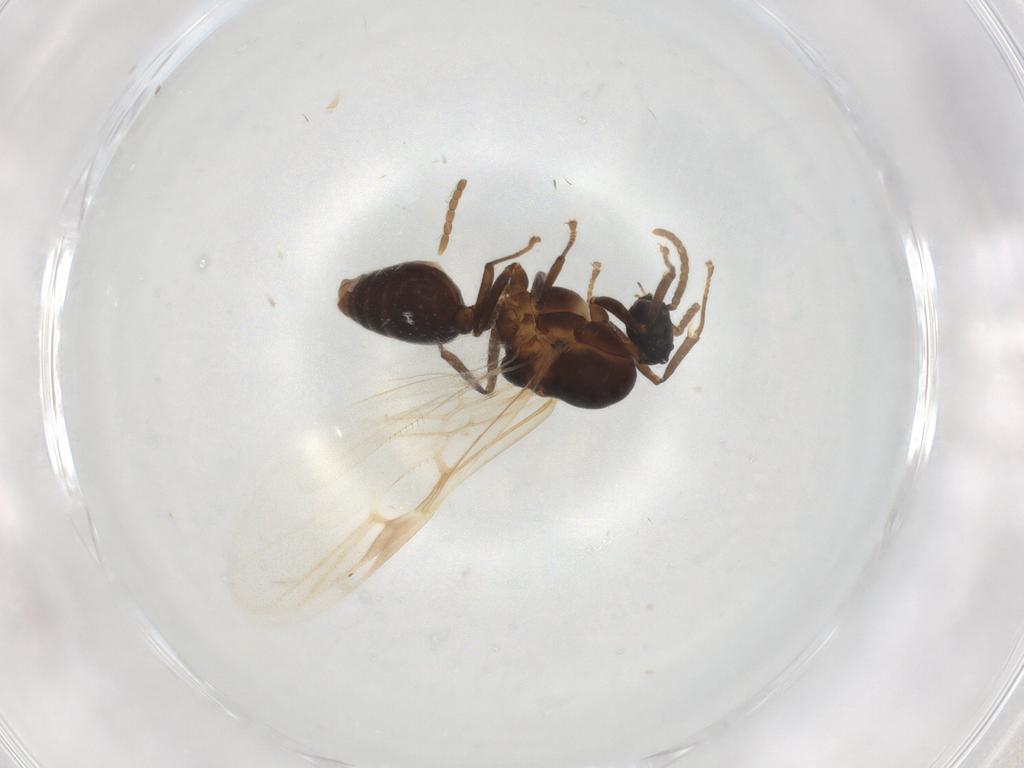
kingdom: Animalia
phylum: Arthropoda
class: Insecta
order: Hymenoptera
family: Formicidae
